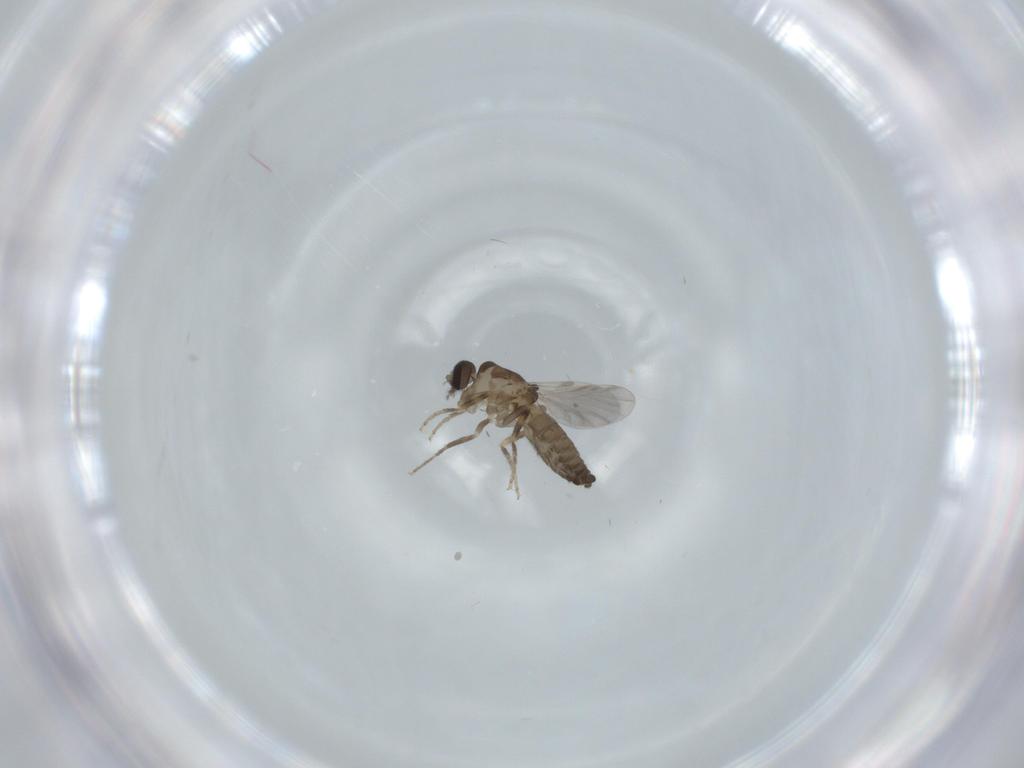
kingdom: Animalia
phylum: Arthropoda
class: Insecta
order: Diptera
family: Ceratopogonidae
